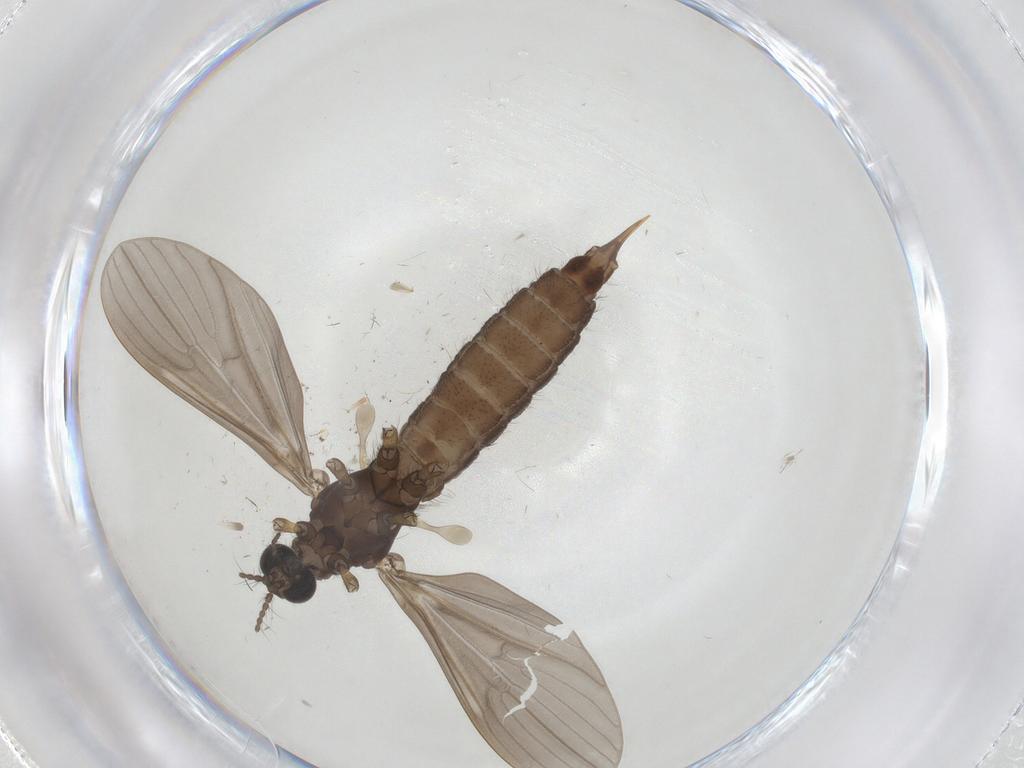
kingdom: Animalia
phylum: Arthropoda
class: Insecta
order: Diptera
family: Limoniidae
